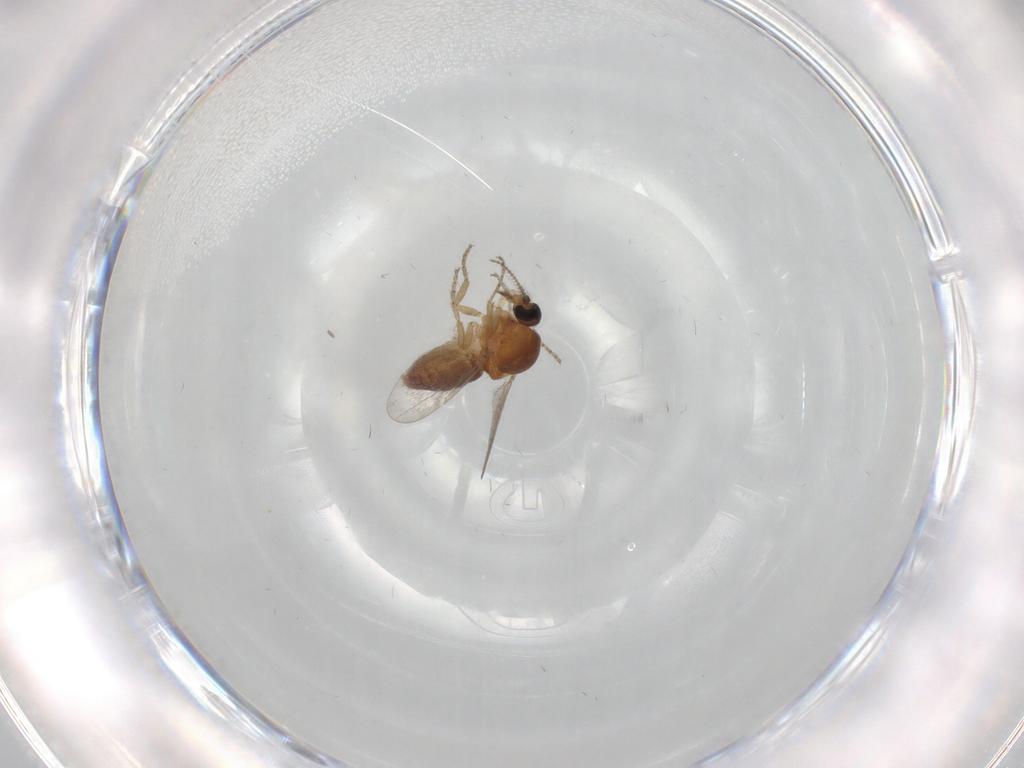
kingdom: Animalia
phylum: Arthropoda
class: Insecta
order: Diptera
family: Ceratopogonidae
